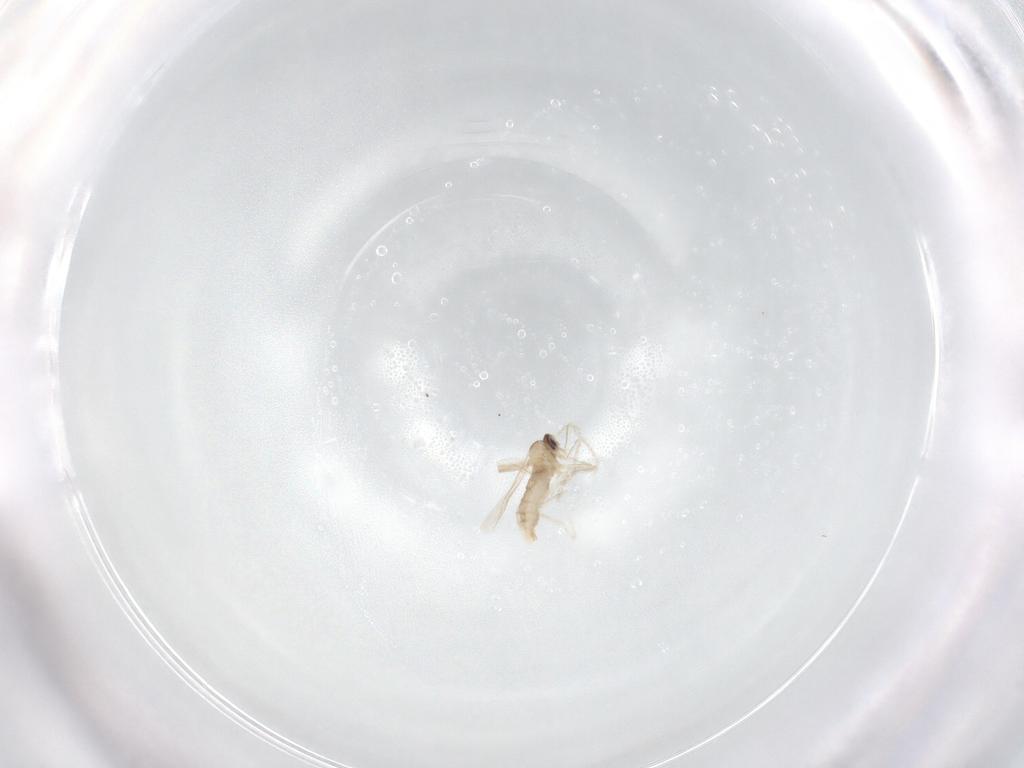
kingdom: Animalia
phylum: Arthropoda
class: Insecta
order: Diptera
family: Cecidomyiidae
